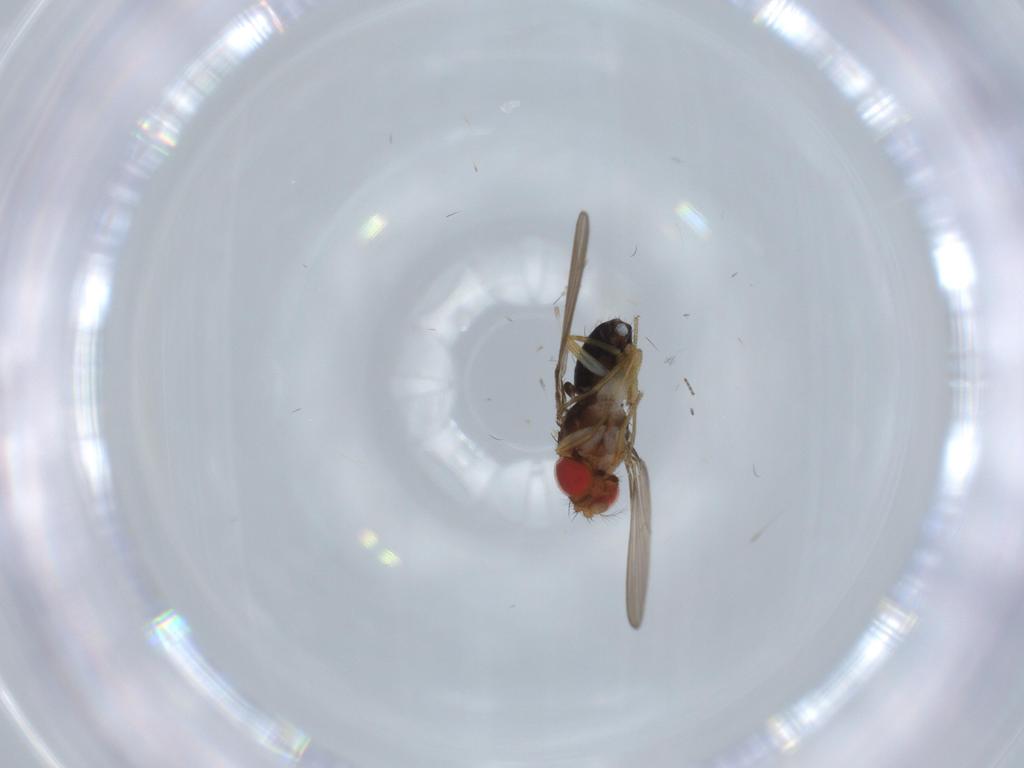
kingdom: Animalia
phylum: Arthropoda
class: Insecta
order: Diptera
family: Drosophilidae
